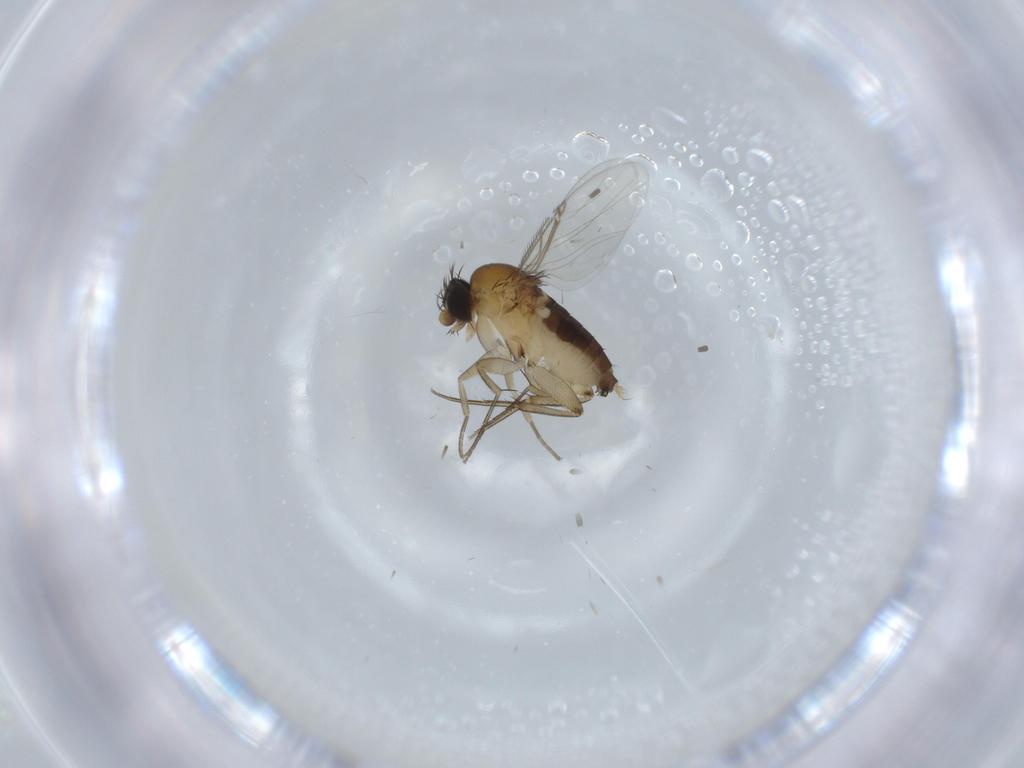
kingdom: Animalia
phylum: Arthropoda
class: Insecta
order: Diptera
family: Phoridae
